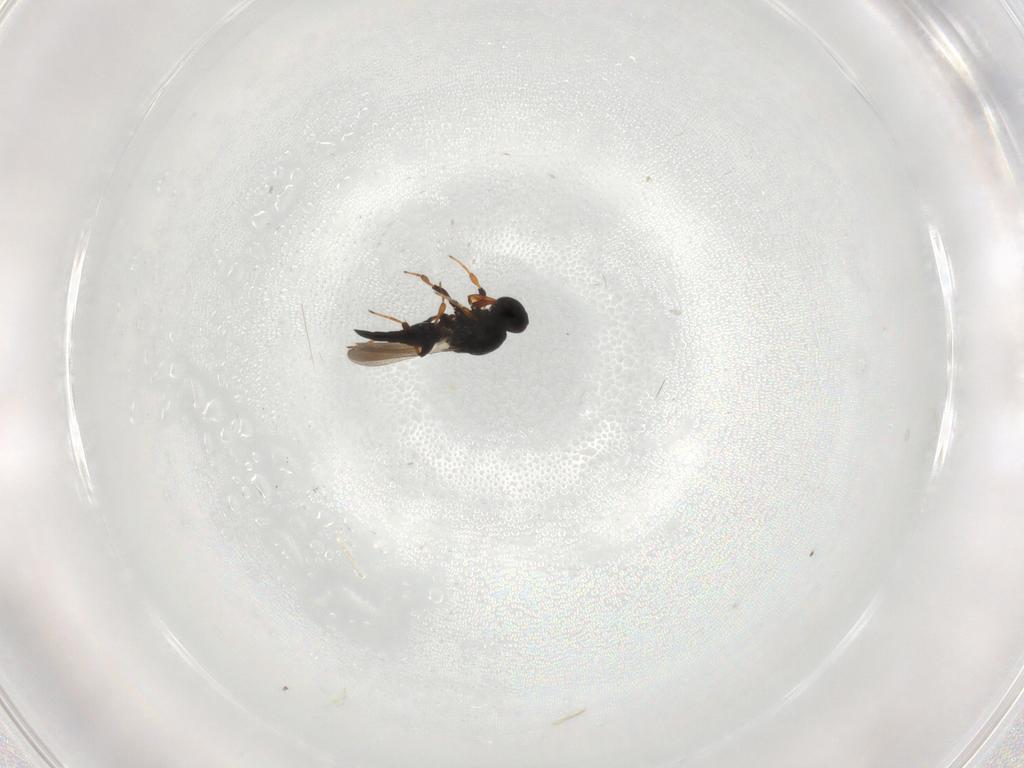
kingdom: Animalia
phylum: Arthropoda
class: Insecta
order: Hymenoptera
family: Platygastridae
